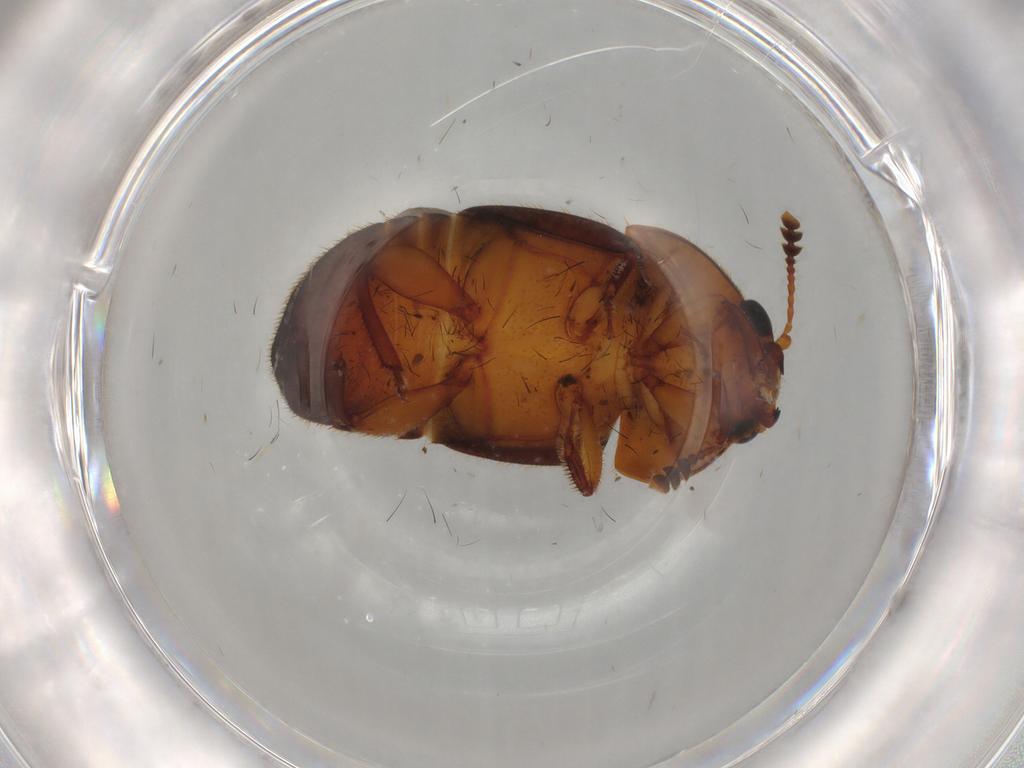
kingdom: Animalia
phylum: Arthropoda
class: Insecta
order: Coleoptera
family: Nitidulidae
